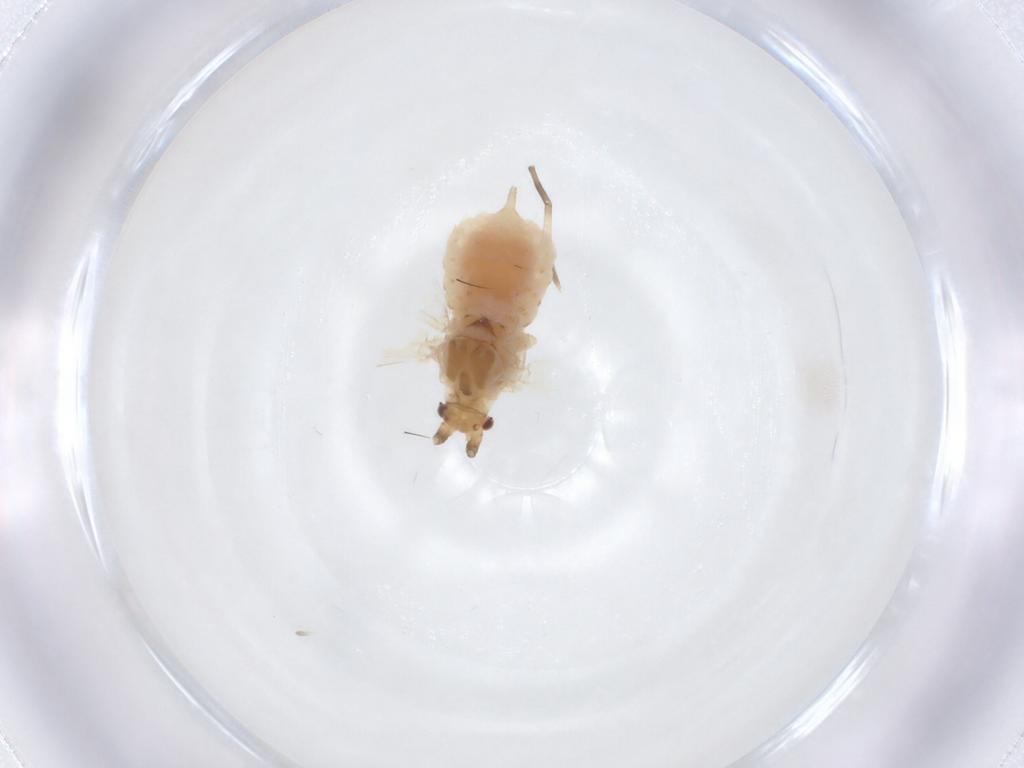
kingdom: Animalia
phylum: Arthropoda
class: Insecta
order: Hemiptera
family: Aphididae
